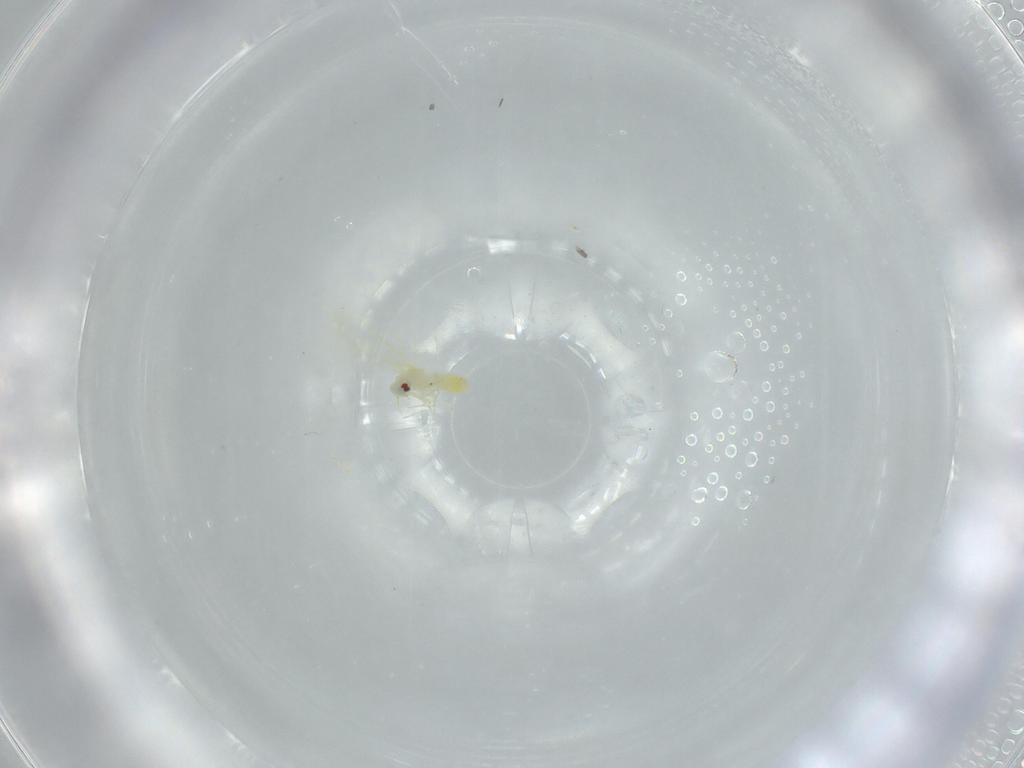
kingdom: Animalia
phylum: Arthropoda
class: Insecta
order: Hemiptera
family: Aleyrodidae
